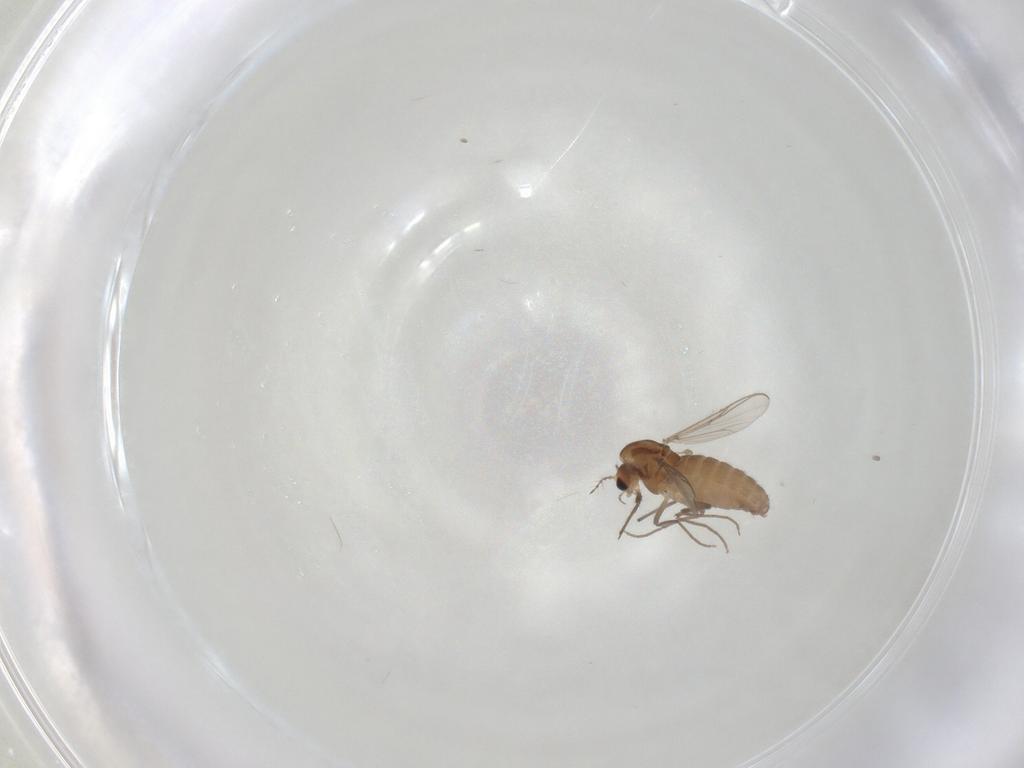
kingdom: Animalia
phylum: Arthropoda
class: Insecta
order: Diptera
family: Chironomidae
